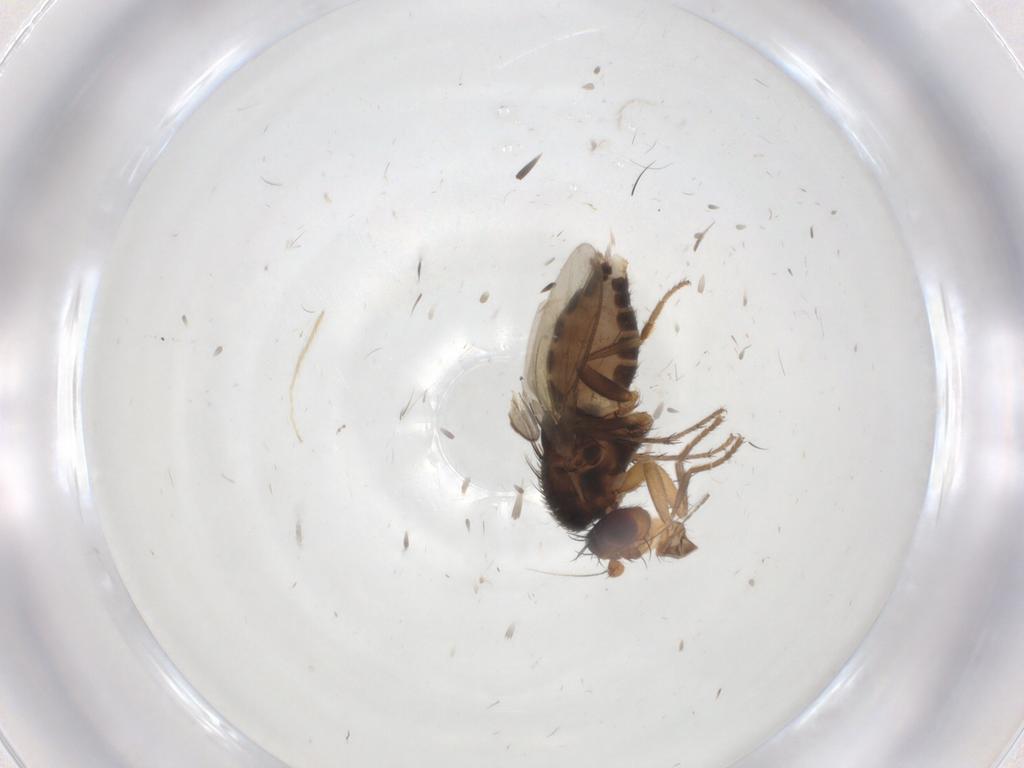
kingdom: Animalia
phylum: Arthropoda
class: Insecta
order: Diptera
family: Sphaeroceridae
